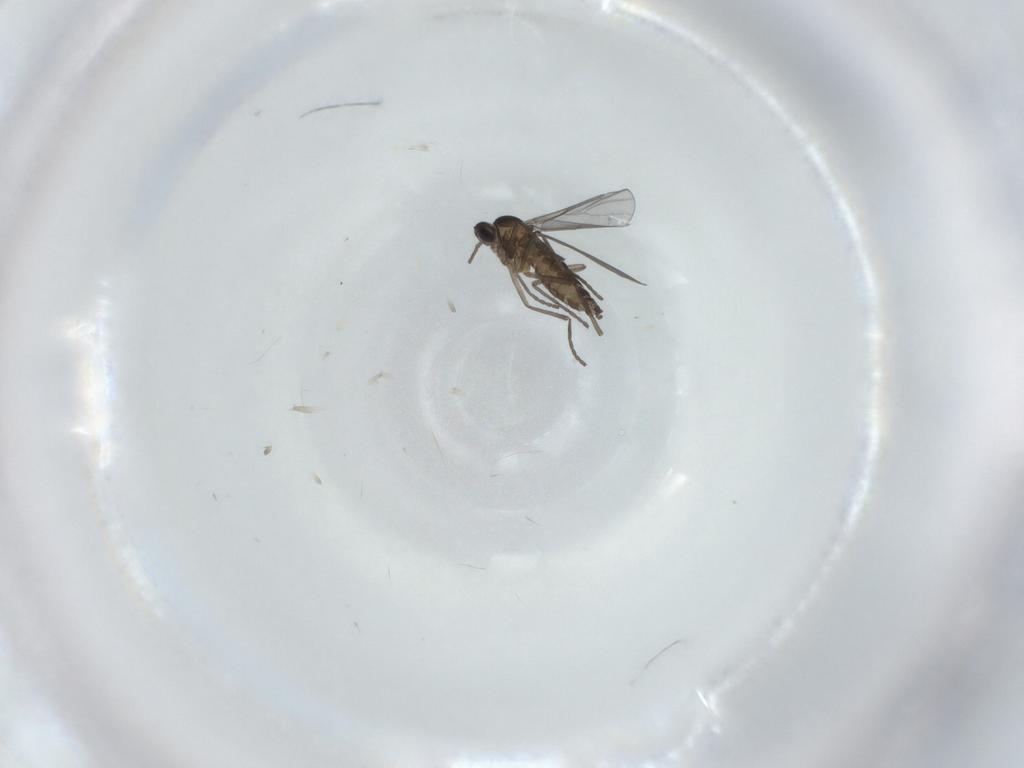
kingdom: Animalia
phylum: Arthropoda
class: Insecta
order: Diptera
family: Cecidomyiidae
